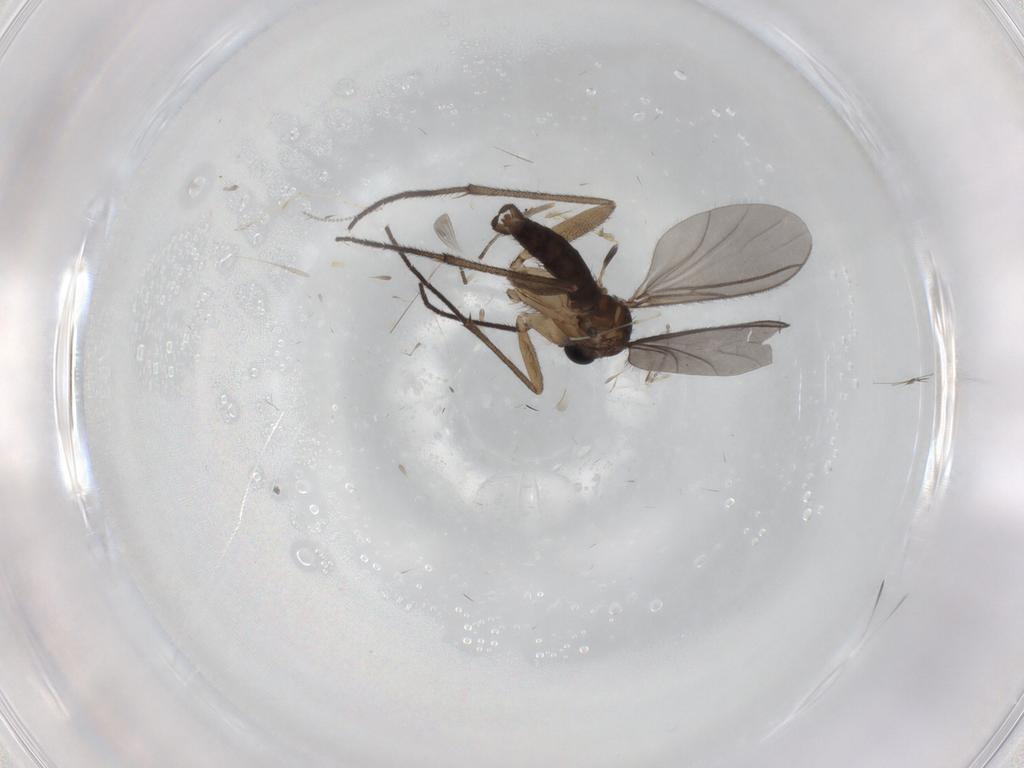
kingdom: Animalia
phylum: Arthropoda
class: Insecta
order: Diptera
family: Sciaridae
